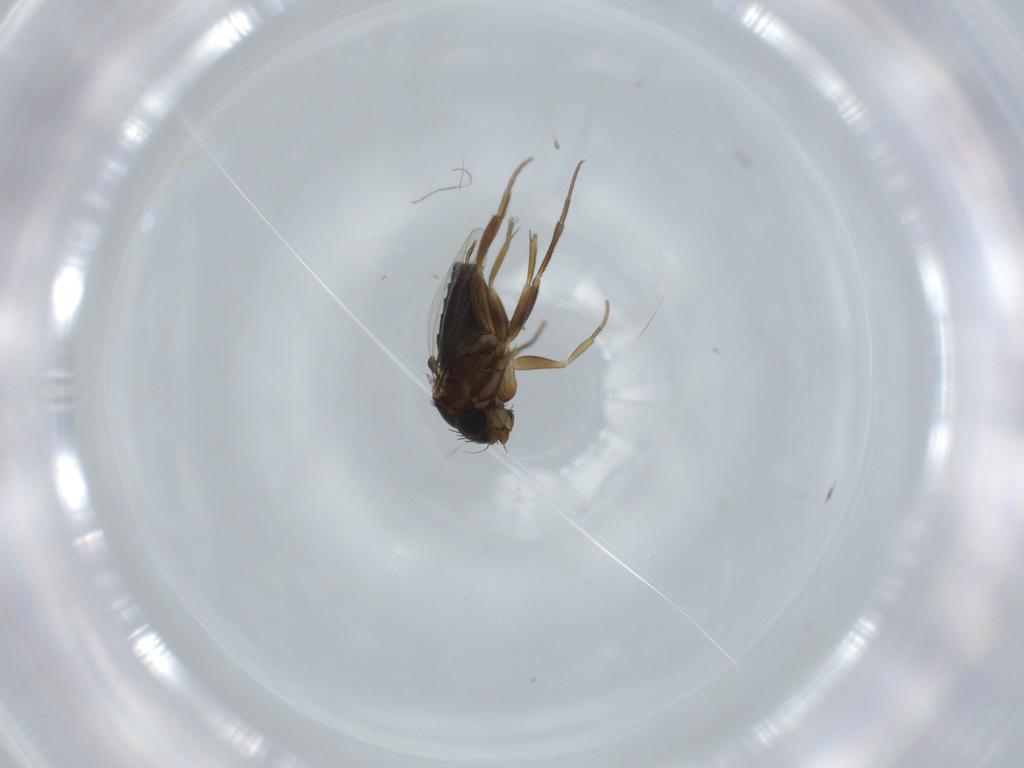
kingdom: Animalia
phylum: Arthropoda
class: Insecta
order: Diptera
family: Phoridae
